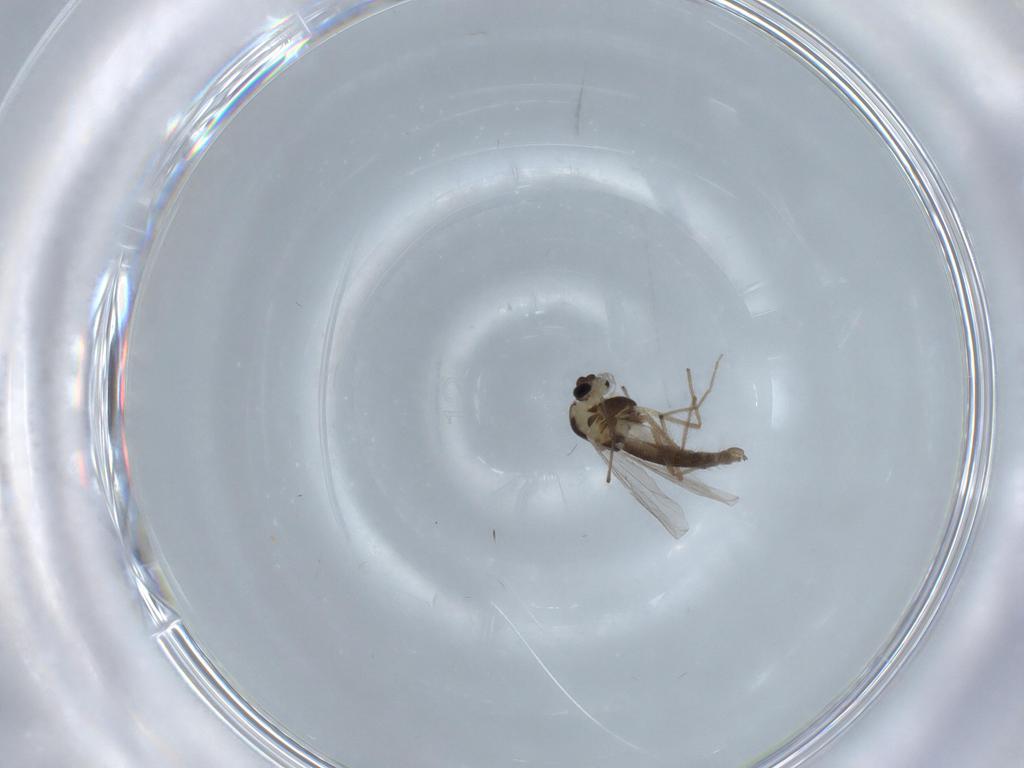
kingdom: Animalia
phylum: Arthropoda
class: Insecta
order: Diptera
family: Chironomidae
